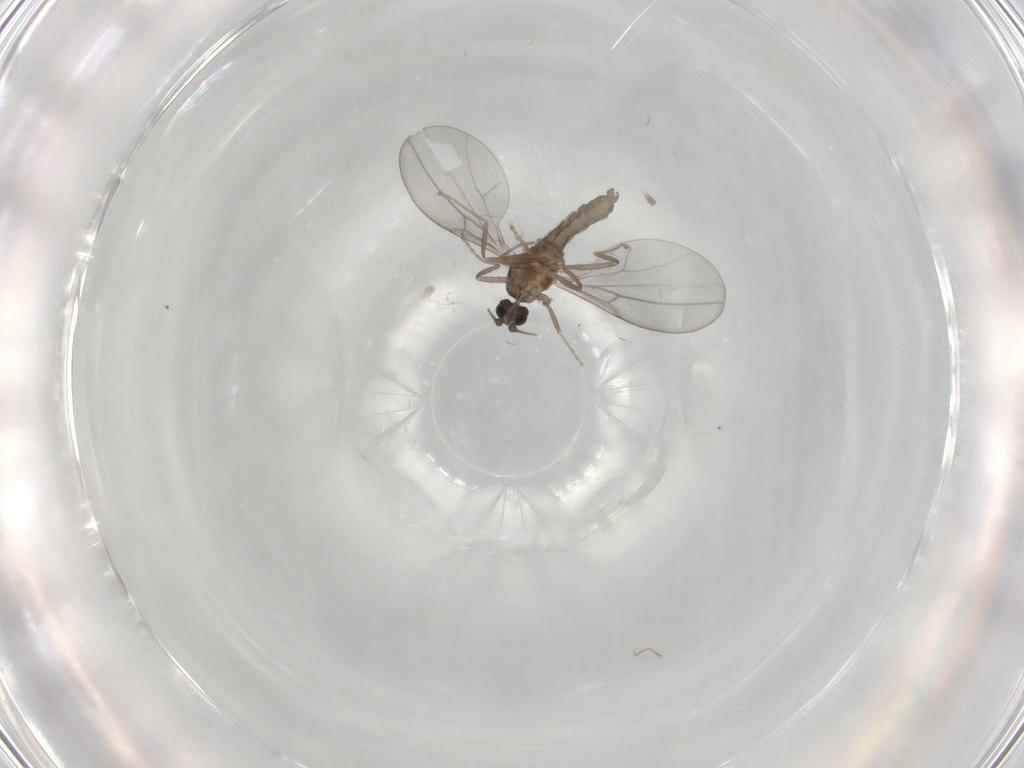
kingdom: Animalia
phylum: Arthropoda
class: Insecta
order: Diptera
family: Cecidomyiidae
